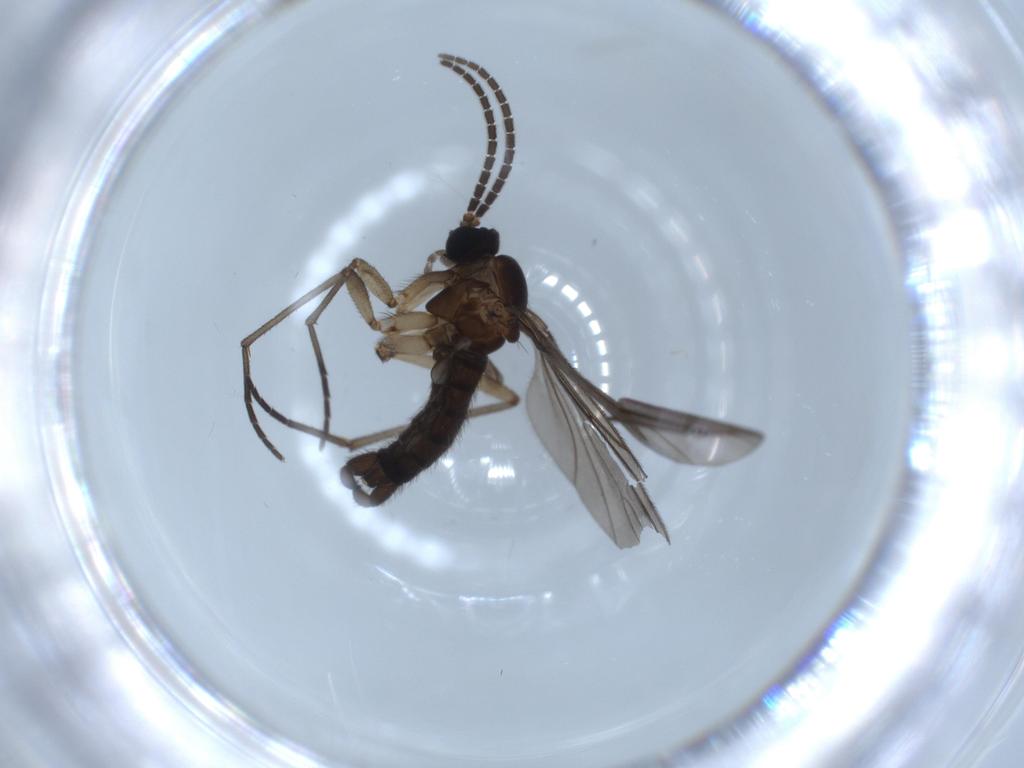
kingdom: Animalia
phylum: Arthropoda
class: Insecta
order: Diptera
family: Sciaridae
